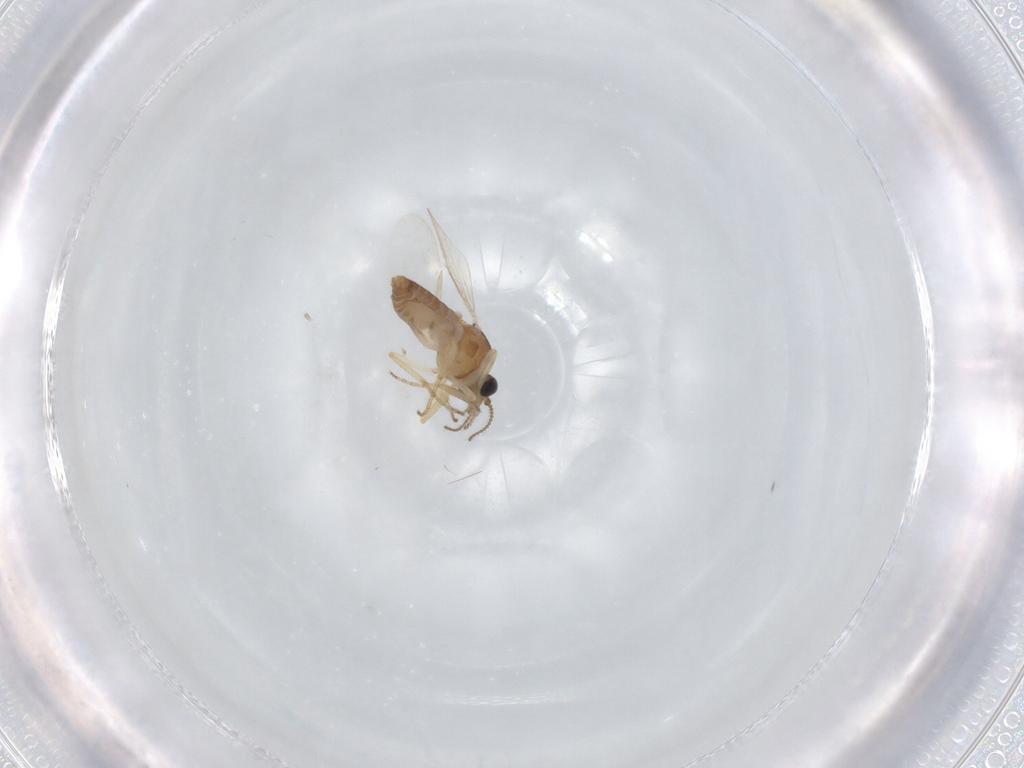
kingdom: Animalia
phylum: Arthropoda
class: Insecta
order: Diptera
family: Ceratopogonidae
